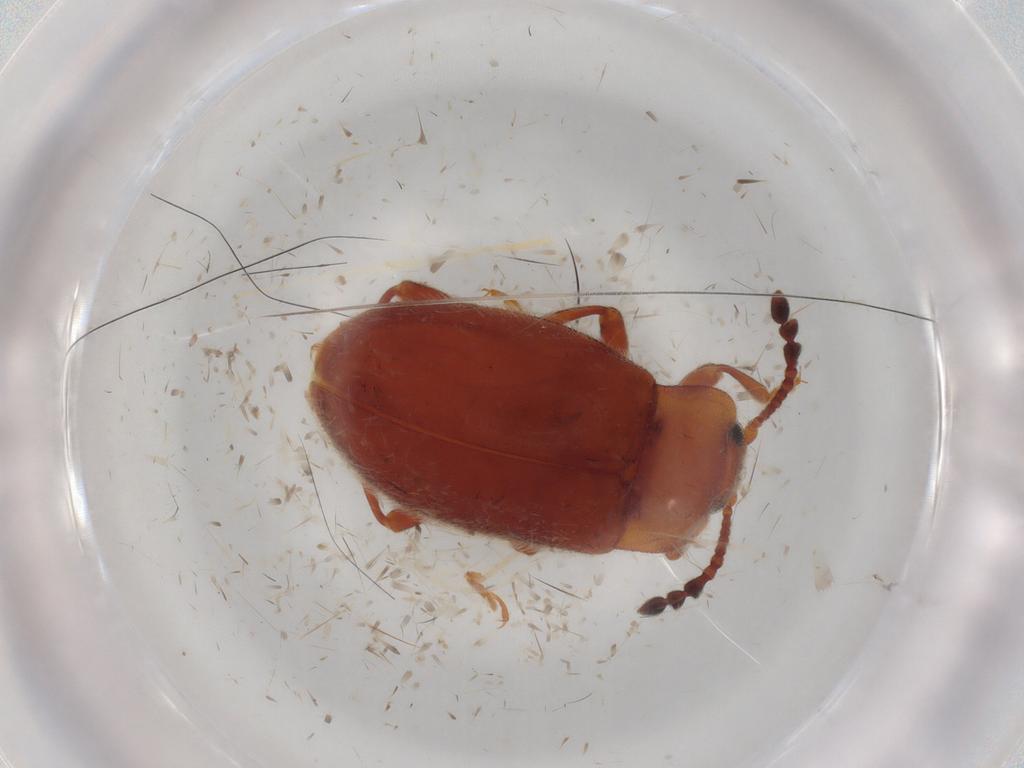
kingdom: Animalia
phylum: Arthropoda
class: Insecta
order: Coleoptera
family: Endomychidae
